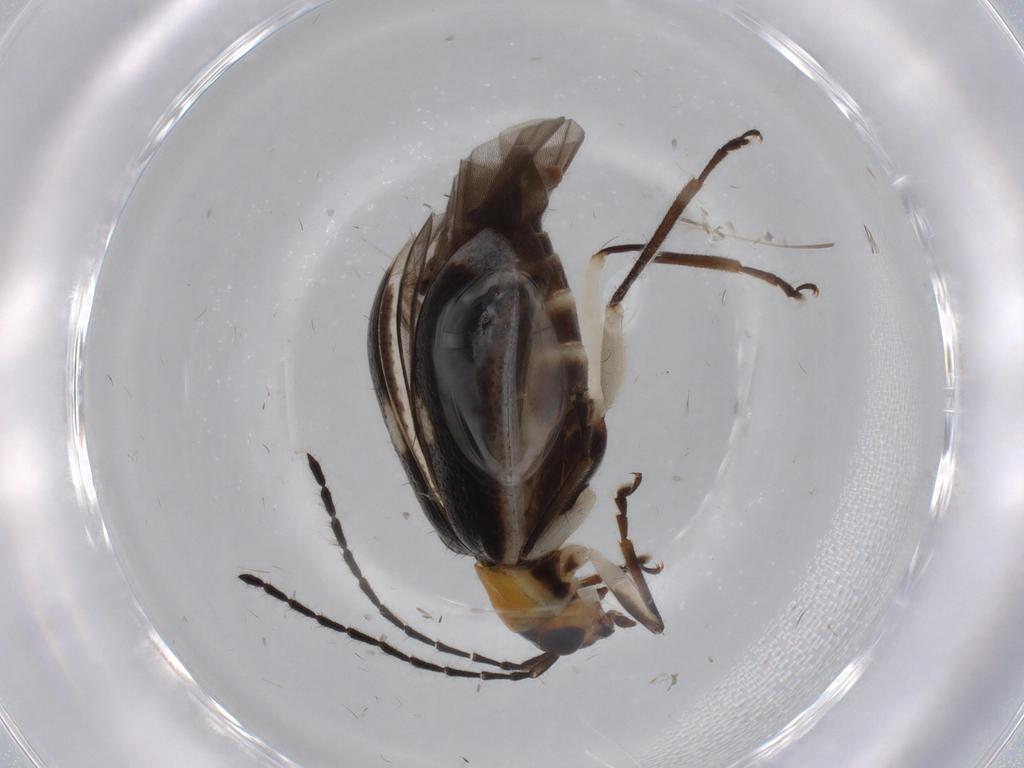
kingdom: Animalia
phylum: Arthropoda
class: Insecta
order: Coleoptera
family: Chrysomelidae
